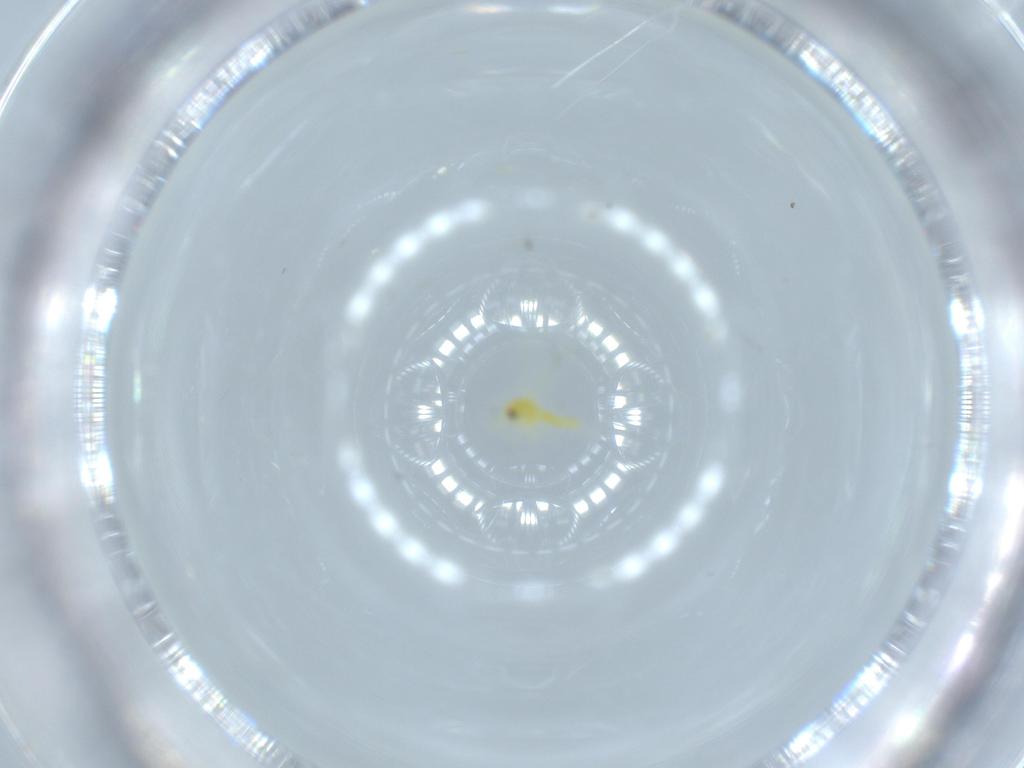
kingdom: Animalia
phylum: Arthropoda
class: Insecta
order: Hemiptera
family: Aleyrodidae
